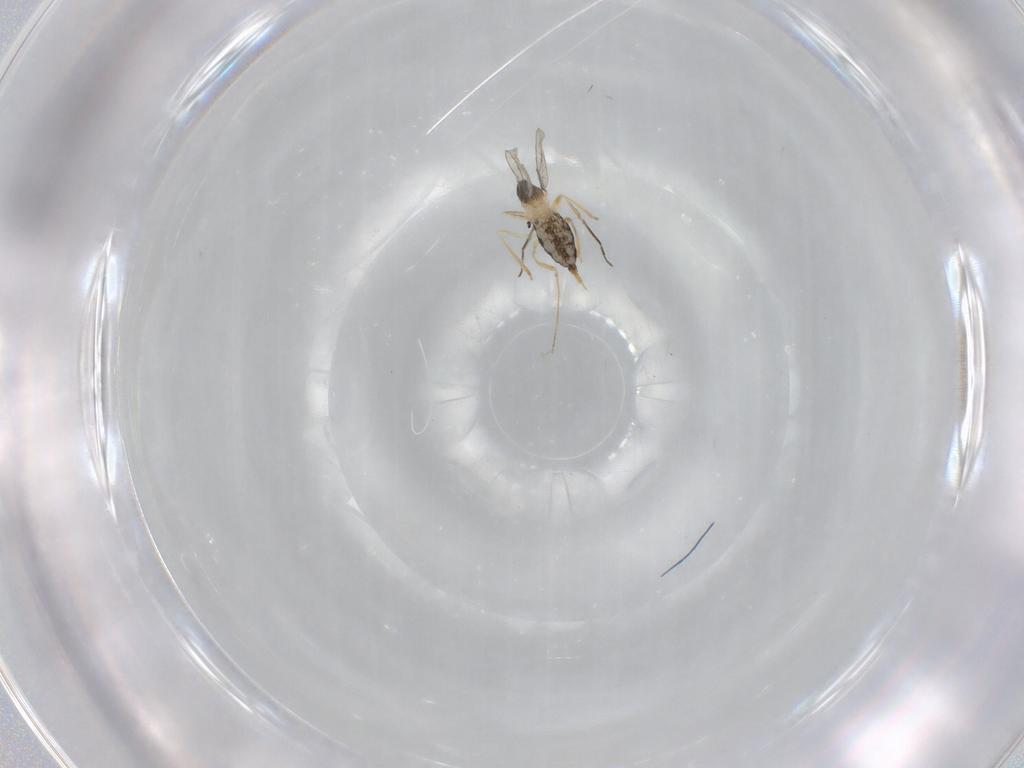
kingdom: Animalia
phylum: Arthropoda
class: Insecta
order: Diptera
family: Cecidomyiidae
